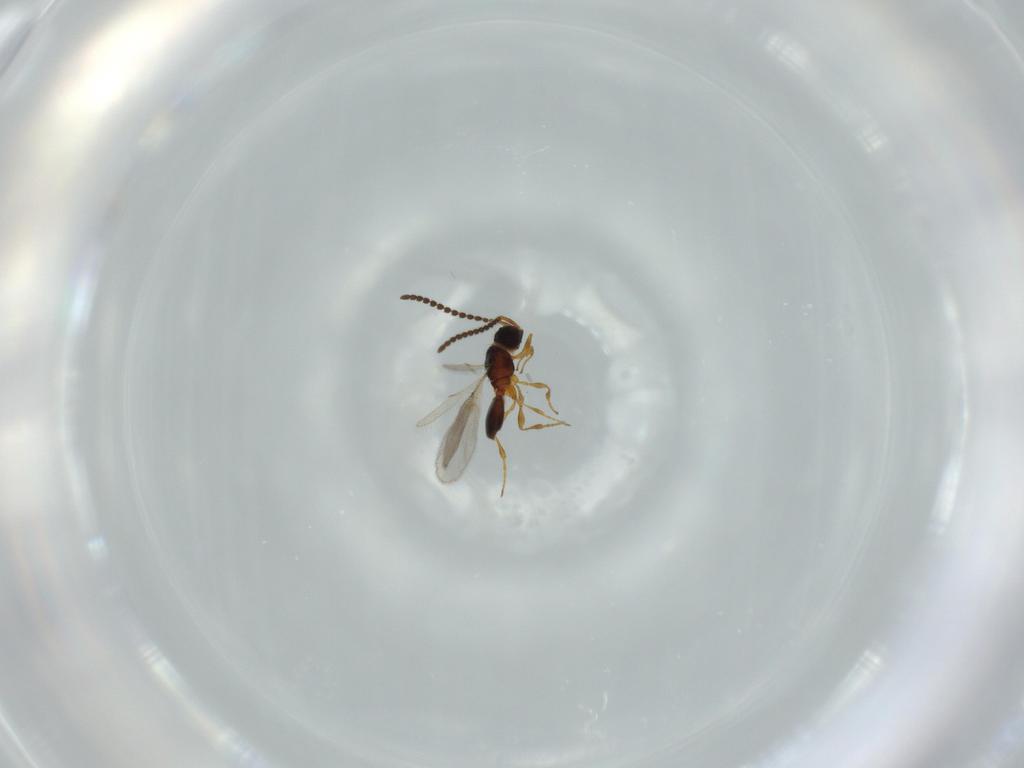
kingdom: Animalia
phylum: Arthropoda
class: Insecta
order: Hymenoptera
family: Diapriidae
